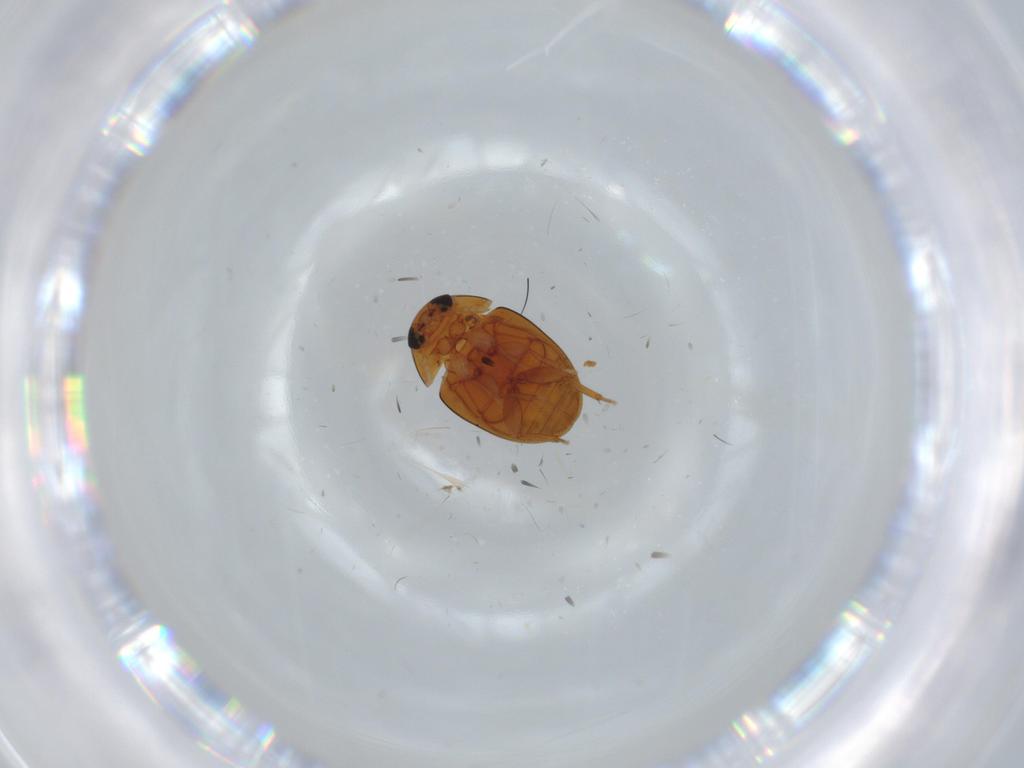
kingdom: Animalia
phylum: Arthropoda
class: Insecta
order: Coleoptera
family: Phalacridae
